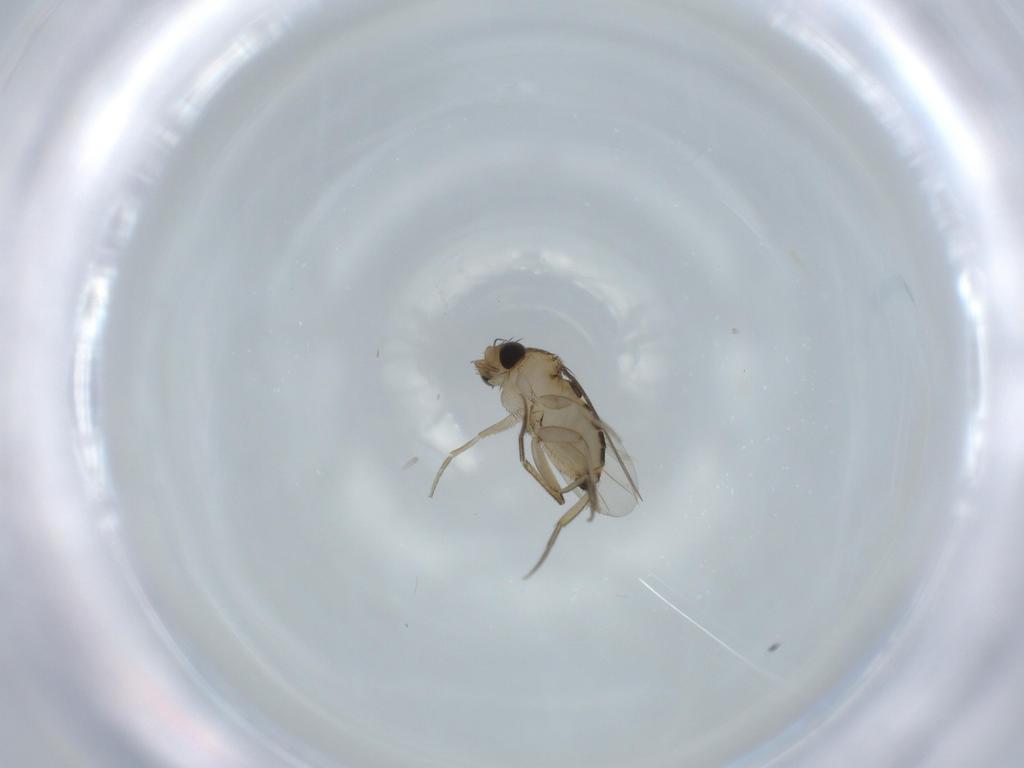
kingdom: Animalia
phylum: Arthropoda
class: Insecta
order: Diptera
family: Phoridae
